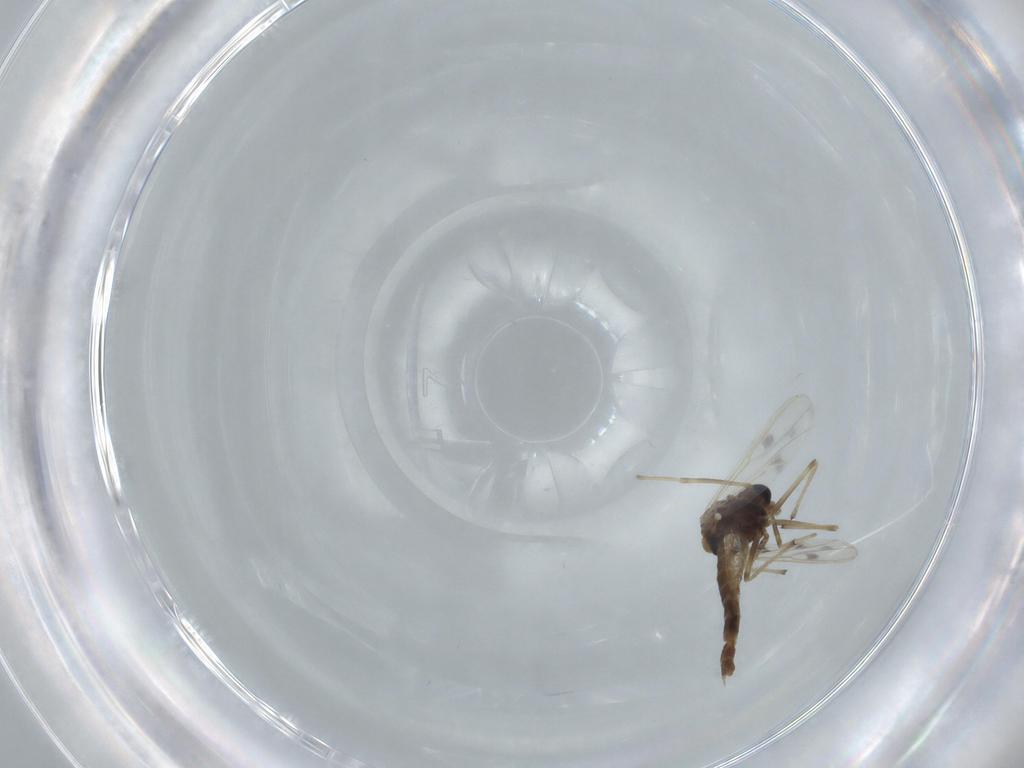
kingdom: Animalia
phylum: Arthropoda
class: Insecta
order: Diptera
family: Chironomidae
